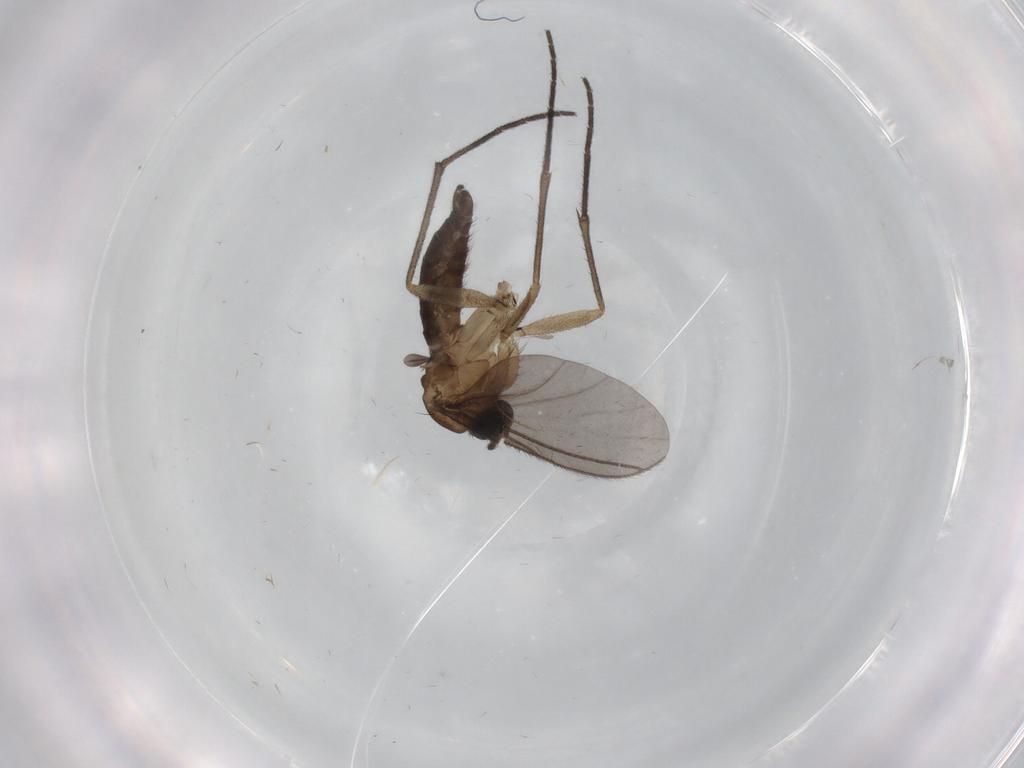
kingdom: Animalia
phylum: Arthropoda
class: Insecta
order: Diptera
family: Sciaridae
